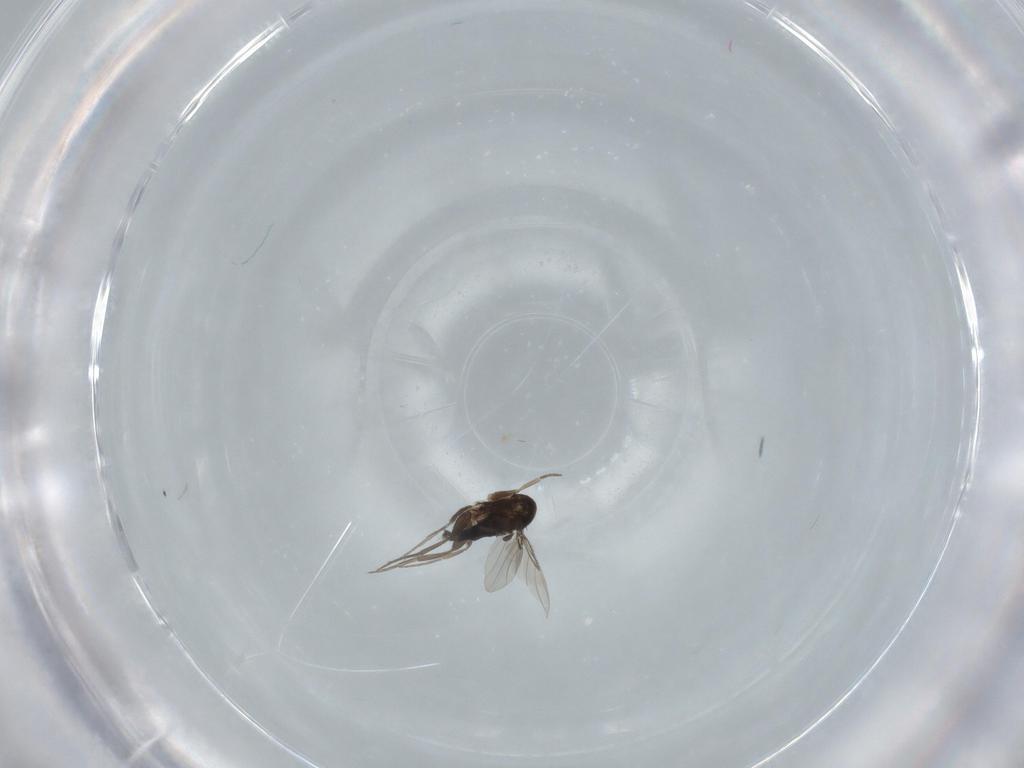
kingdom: Animalia
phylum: Arthropoda
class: Insecta
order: Diptera
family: Phoridae
